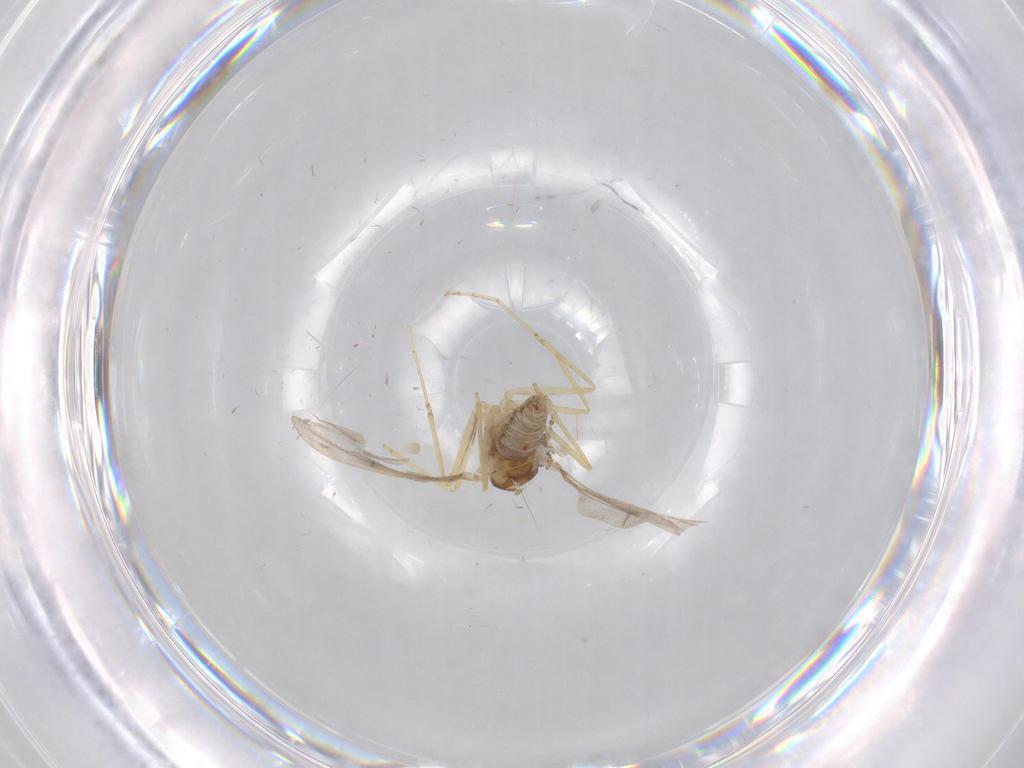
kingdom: Animalia
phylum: Arthropoda
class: Insecta
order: Diptera
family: Cecidomyiidae
